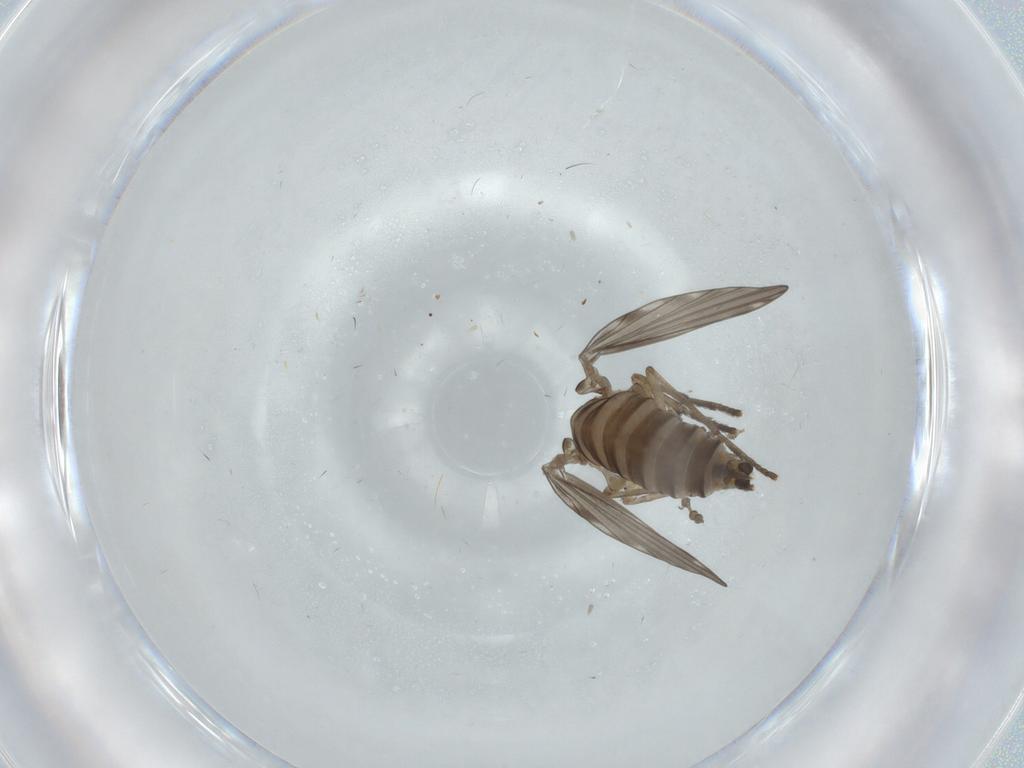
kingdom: Animalia
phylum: Arthropoda
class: Insecta
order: Diptera
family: Psychodidae
